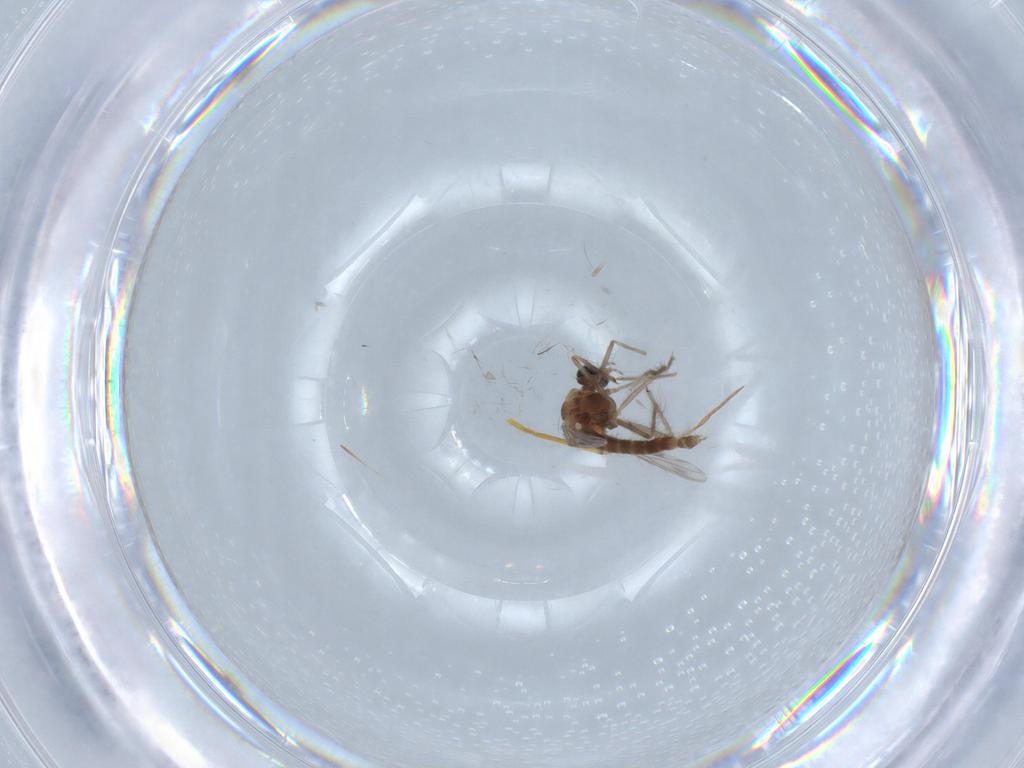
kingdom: Animalia
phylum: Arthropoda
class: Insecta
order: Diptera
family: Chironomidae
